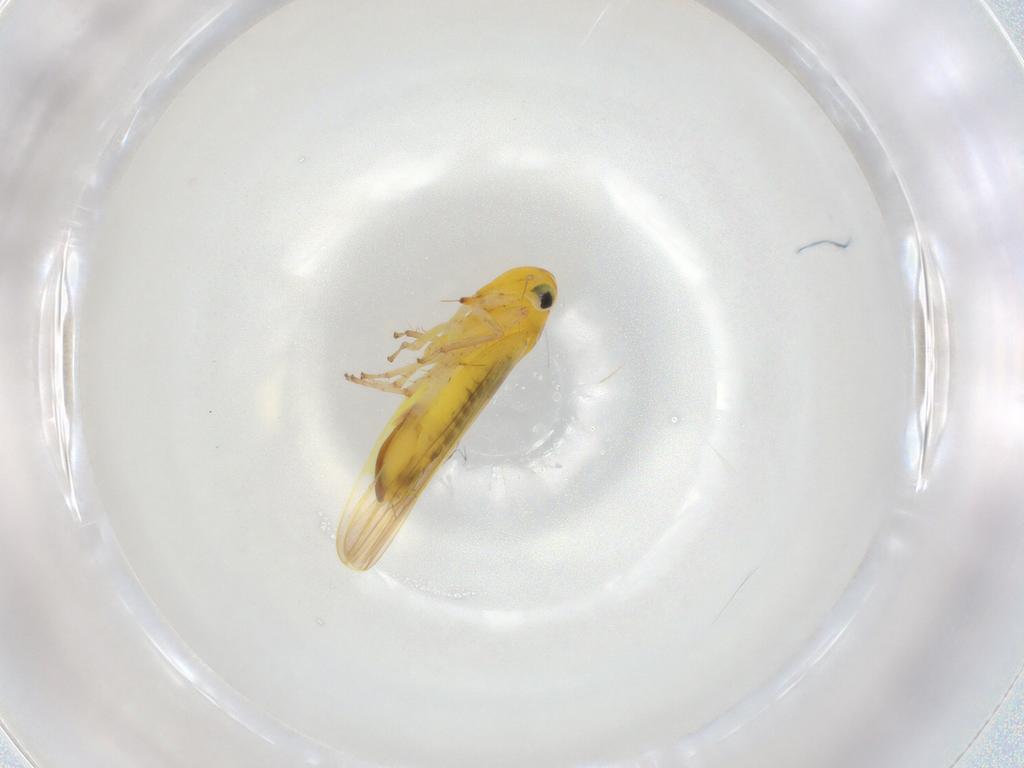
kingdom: Animalia
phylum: Arthropoda
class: Insecta
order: Hemiptera
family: Cicadellidae
